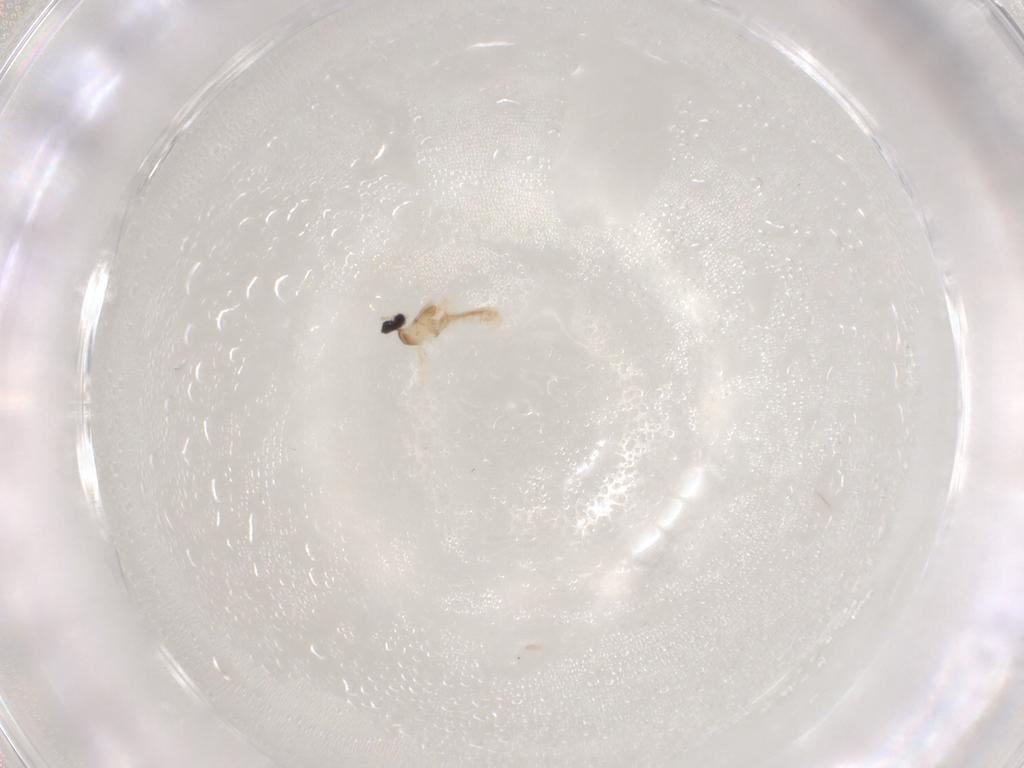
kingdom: Animalia
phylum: Arthropoda
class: Insecta
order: Diptera
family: Cecidomyiidae
